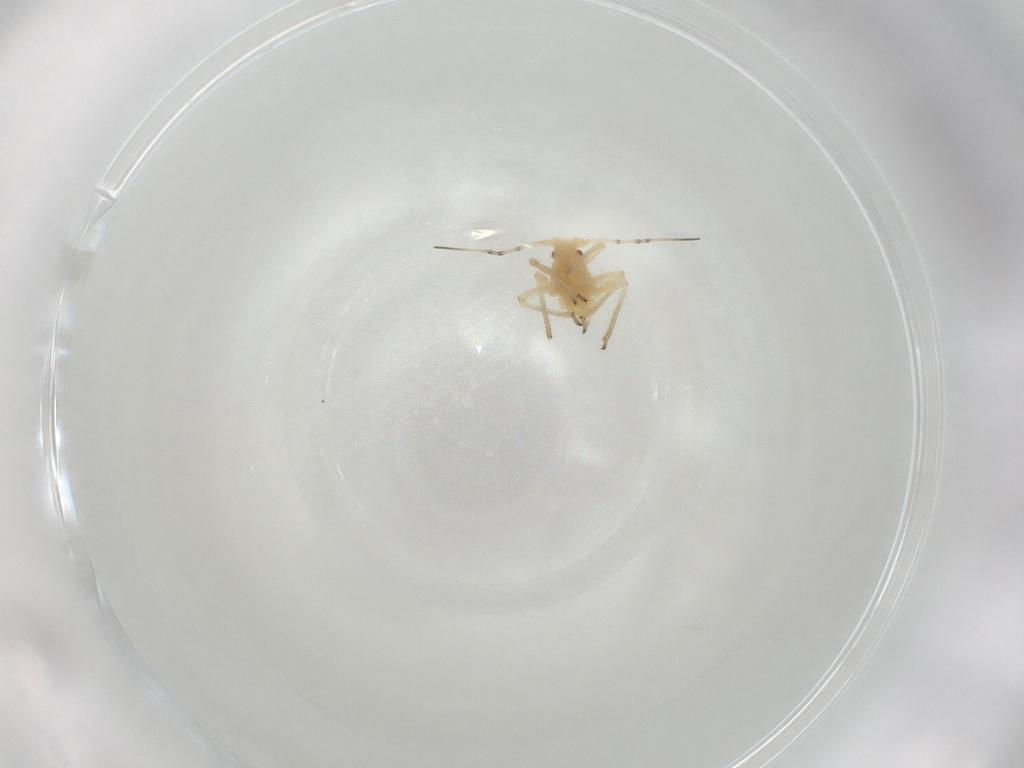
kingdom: Animalia
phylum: Arthropoda
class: Insecta
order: Hemiptera
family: Aphididae
